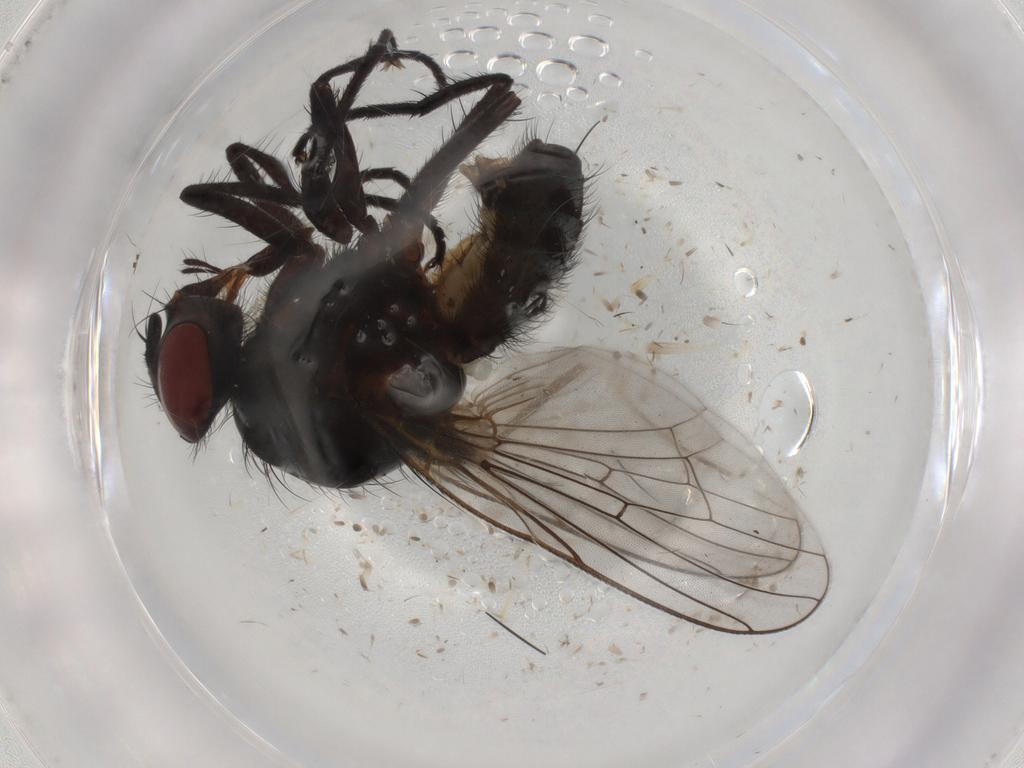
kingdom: Animalia
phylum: Arthropoda
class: Insecta
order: Diptera
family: Anthomyiidae
